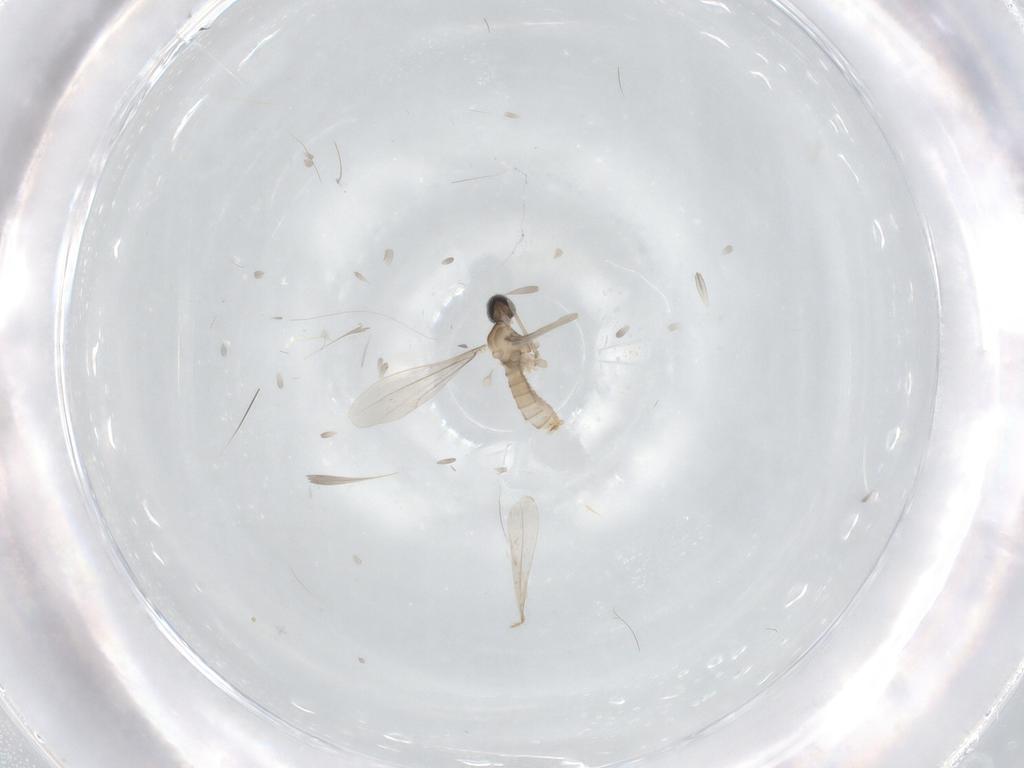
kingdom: Animalia
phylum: Arthropoda
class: Insecta
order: Diptera
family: Cecidomyiidae
